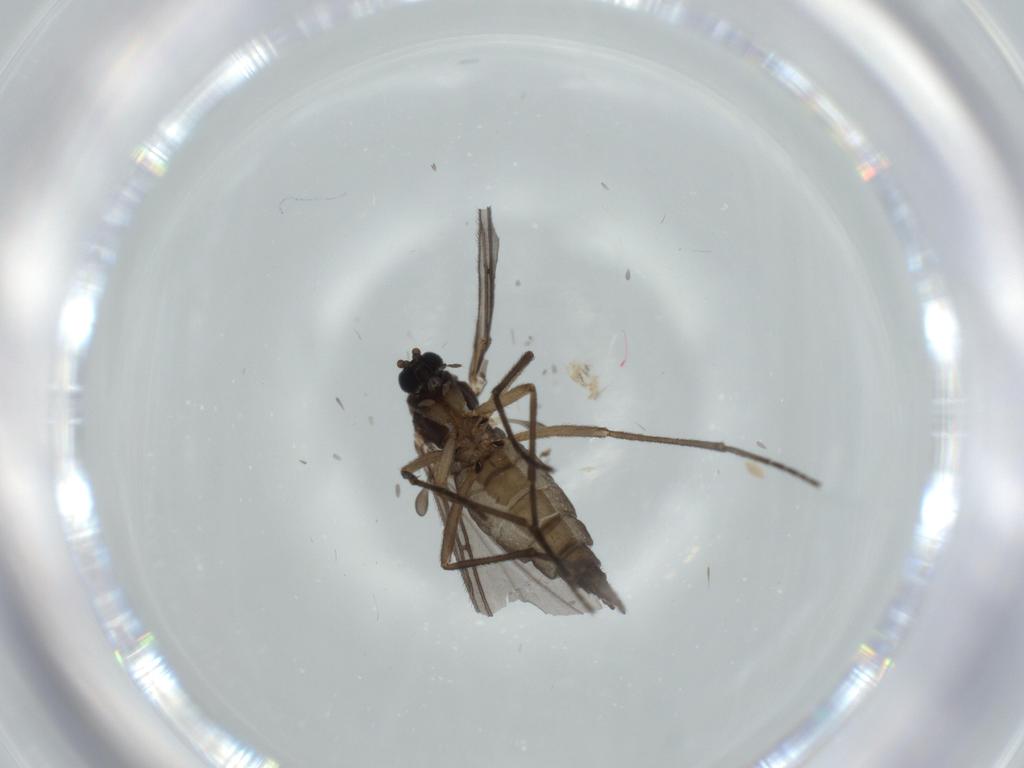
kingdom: Animalia
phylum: Arthropoda
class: Insecta
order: Diptera
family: Sciaridae
